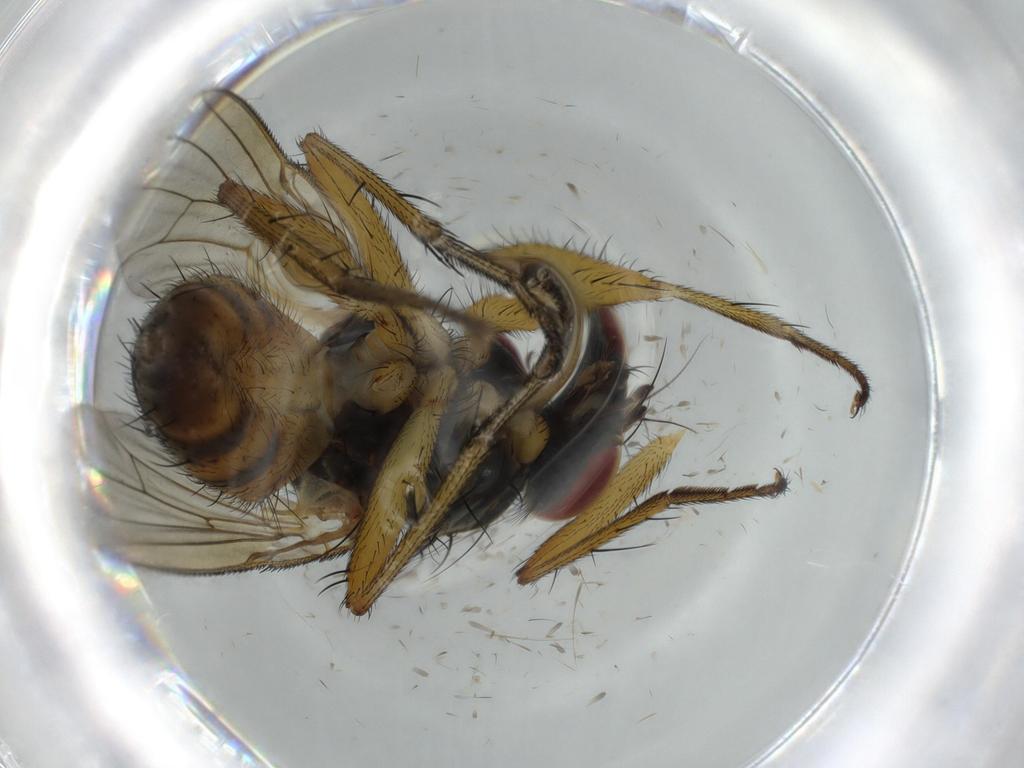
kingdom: Animalia
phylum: Arthropoda
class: Insecta
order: Diptera
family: Muscidae
